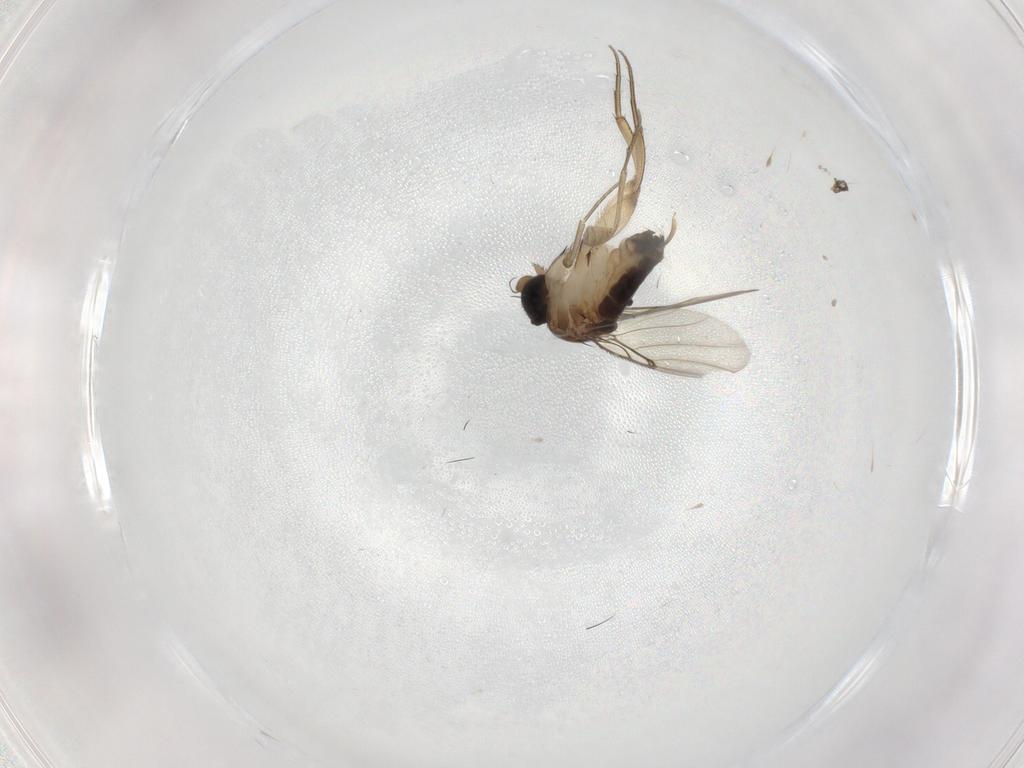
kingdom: Animalia
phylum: Arthropoda
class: Insecta
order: Diptera
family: Phoridae
